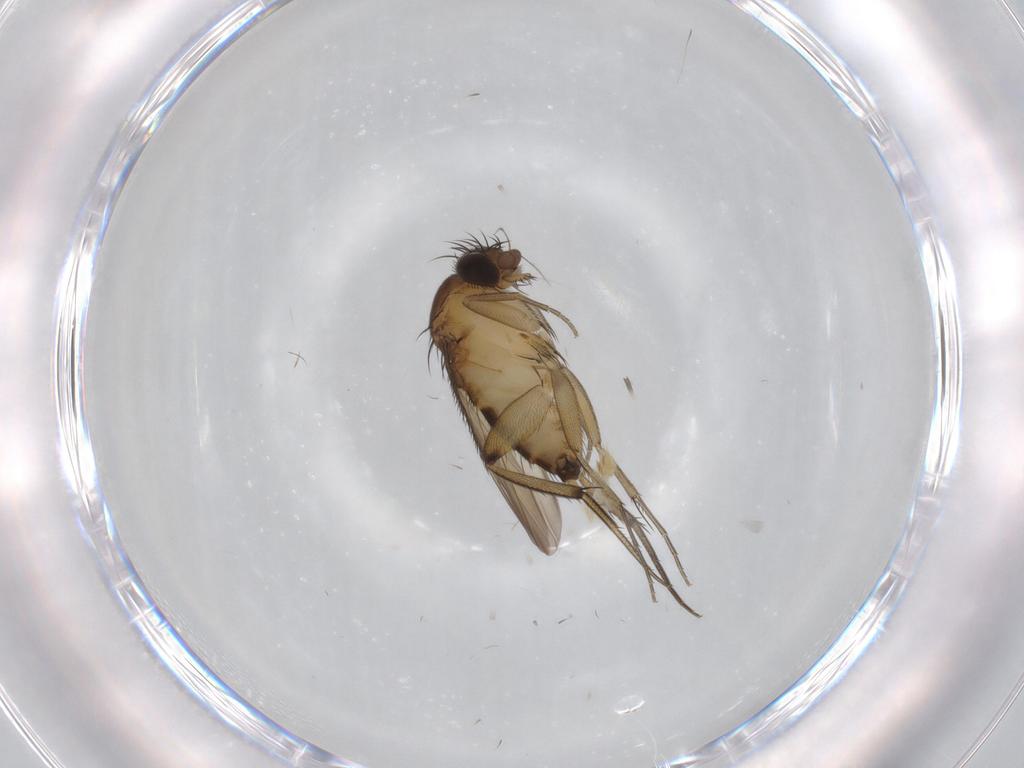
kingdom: Animalia
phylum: Arthropoda
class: Insecta
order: Diptera
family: Phoridae
